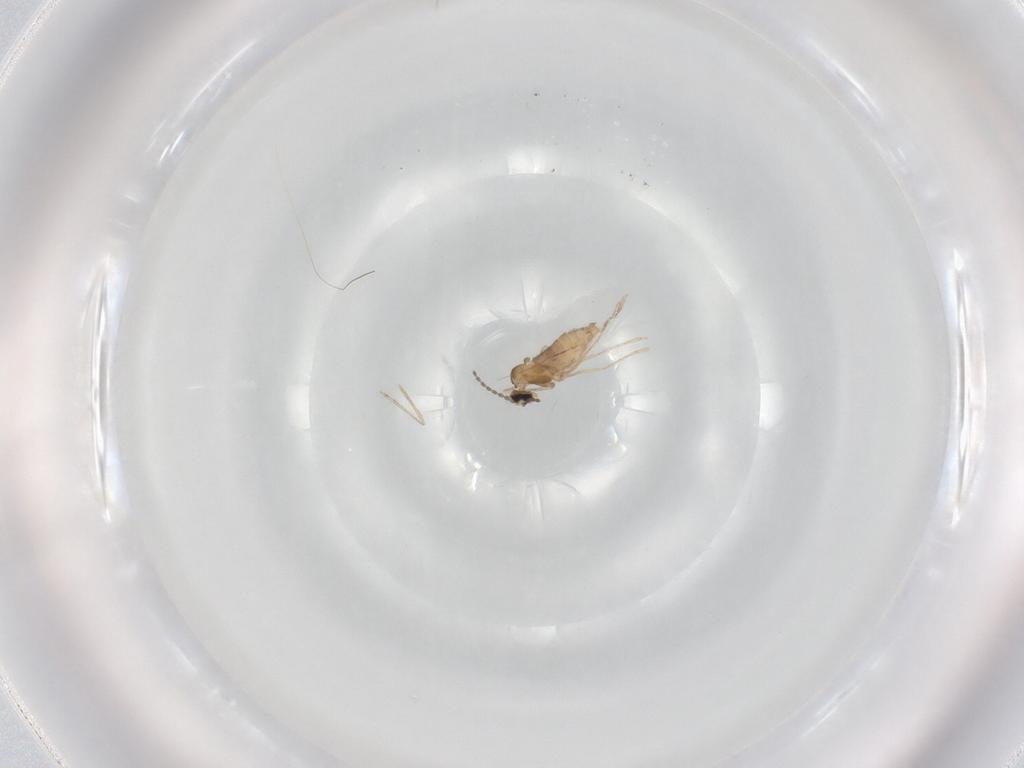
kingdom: Animalia
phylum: Arthropoda
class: Insecta
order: Diptera
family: Cecidomyiidae
